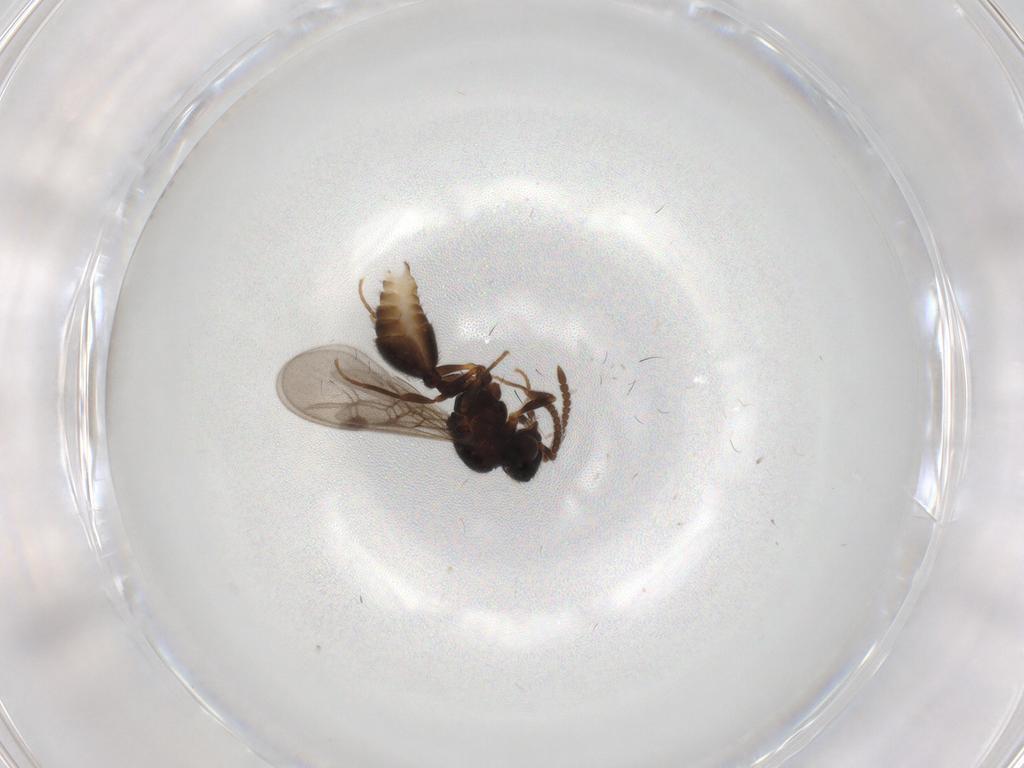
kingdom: Animalia
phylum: Arthropoda
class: Insecta
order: Hymenoptera
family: Formicidae
